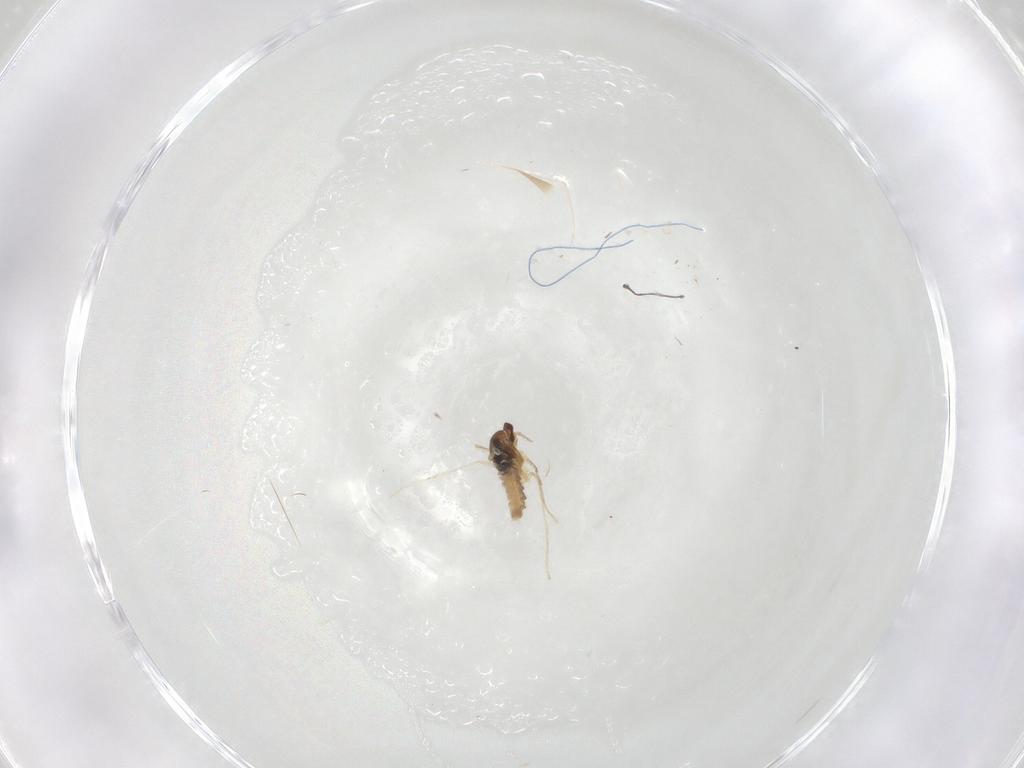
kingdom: Animalia
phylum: Arthropoda
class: Insecta
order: Diptera
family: Cecidomyiidae
